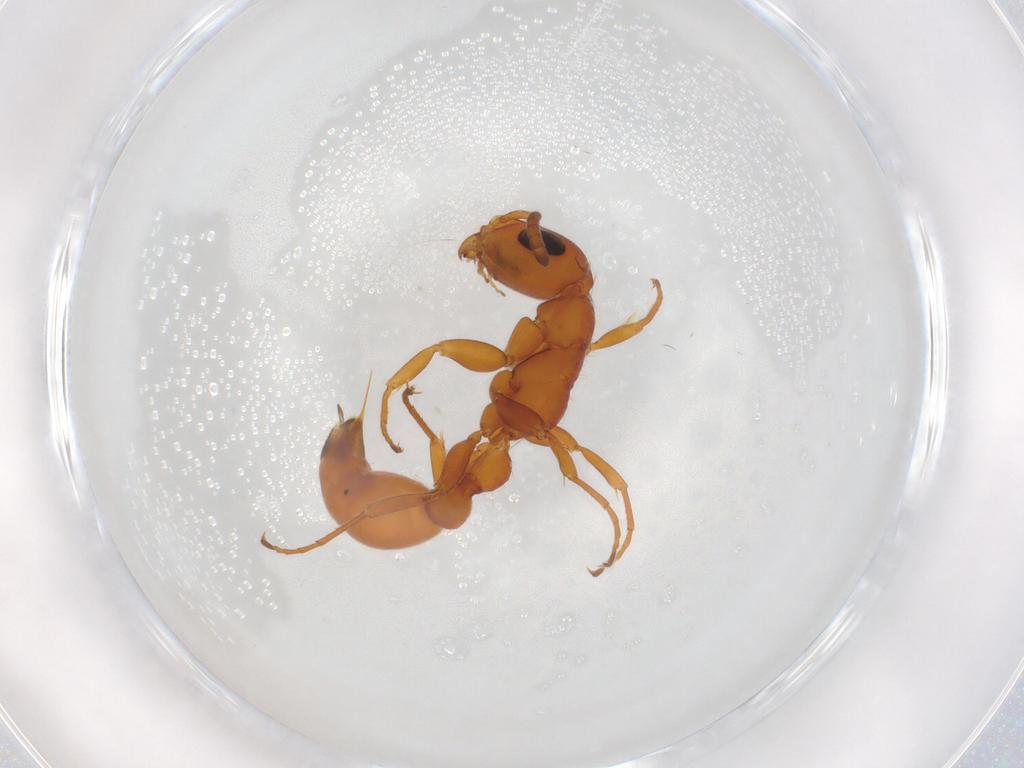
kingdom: Animalia
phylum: Arthropoda
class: Insecta
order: Hymenoptera
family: Formicidae
